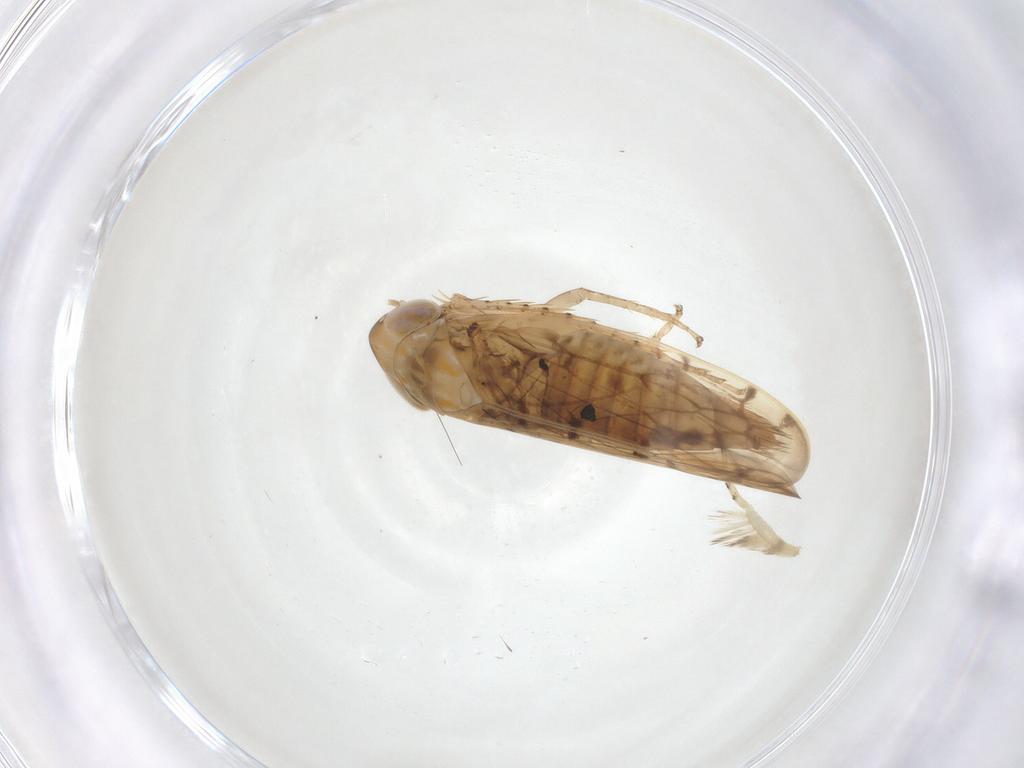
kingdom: Animalia
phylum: Arthropoda
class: Insecta
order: Hemiptera
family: Cicadellidae
